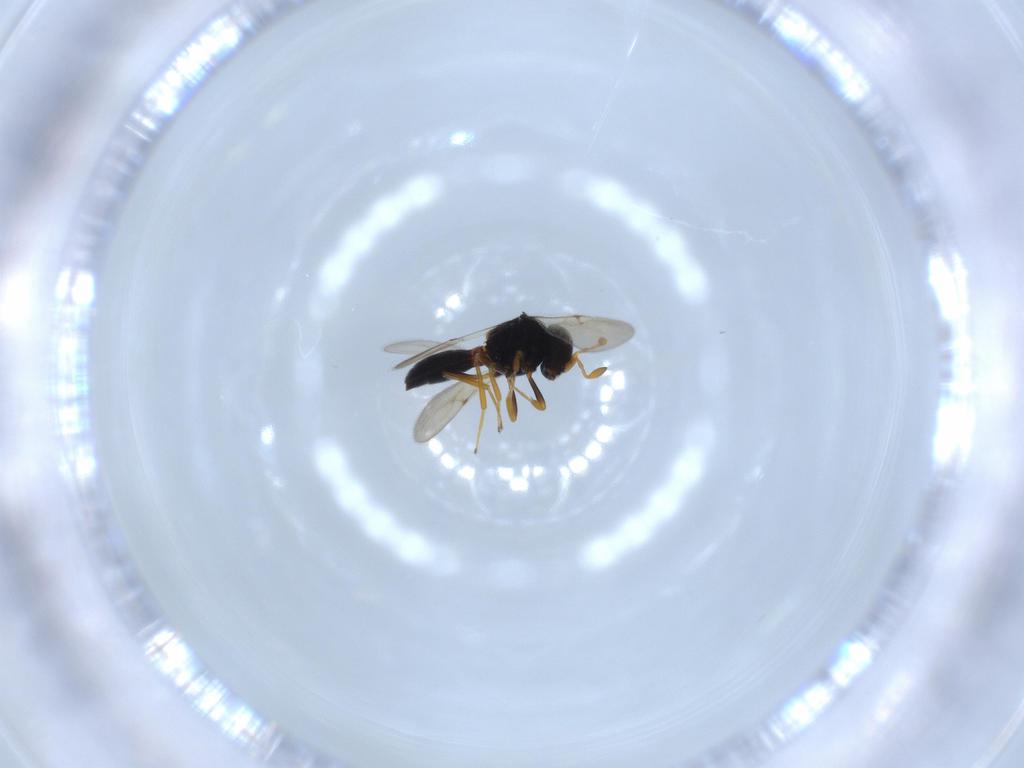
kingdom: Animalia
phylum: Arthropoda
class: Insecta
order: Hymenoptera
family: Scelionidae
